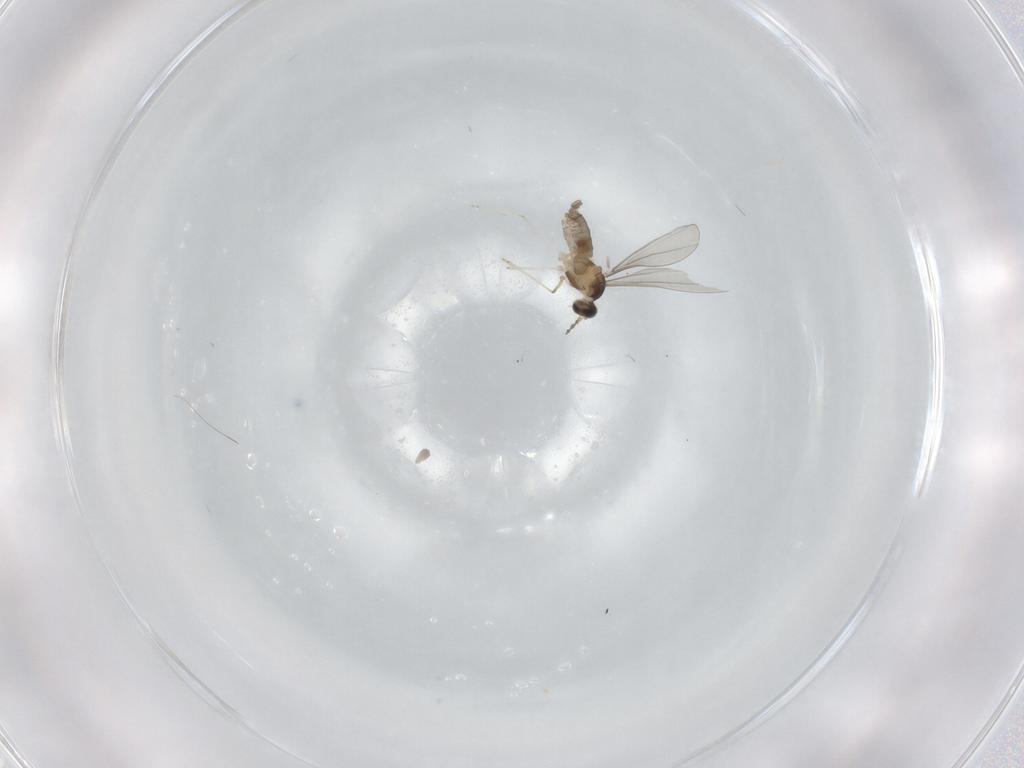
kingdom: Animalia
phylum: Arthropoda
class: Insecta
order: Diptera
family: Cecidomyiidae
